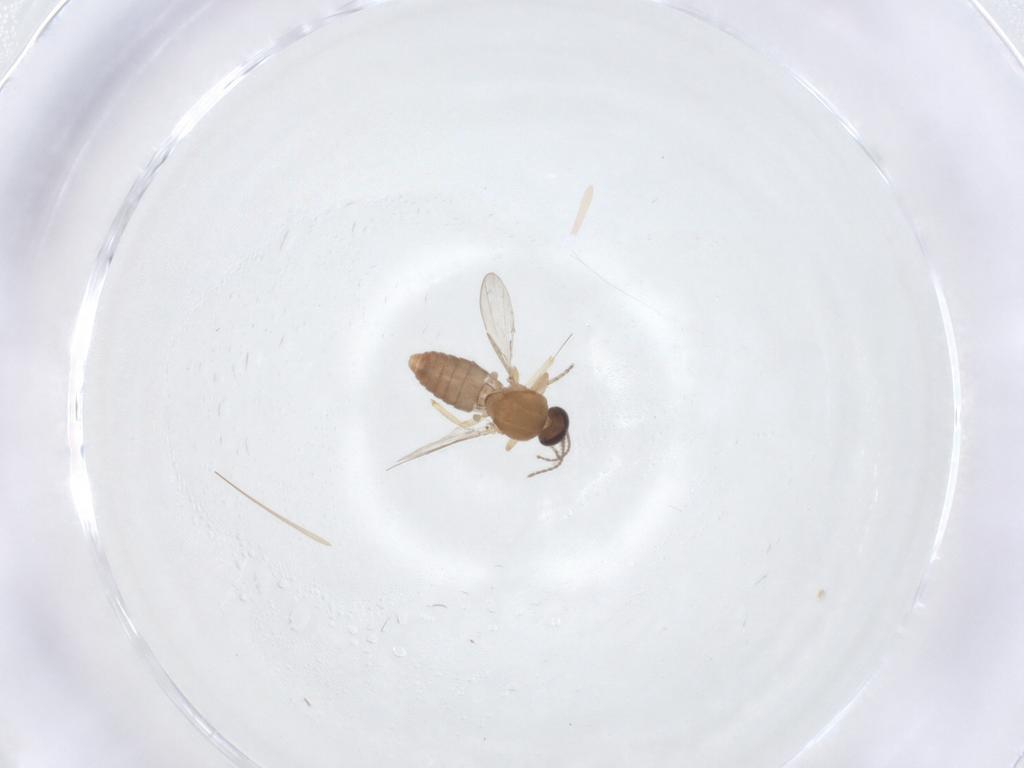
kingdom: Animalia
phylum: Arthropoda
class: Insecta
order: Diptera
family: Ceratopogonidae
